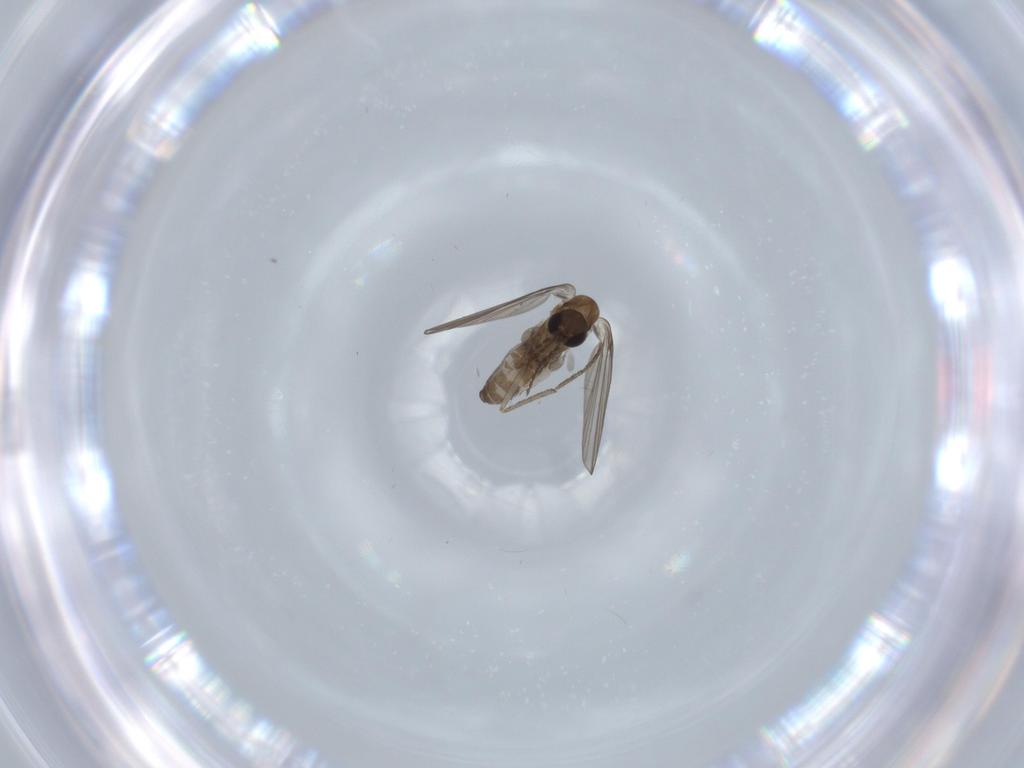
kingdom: Animalia
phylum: Arthropoda
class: Insecta
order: Diptera
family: Psychodidae
